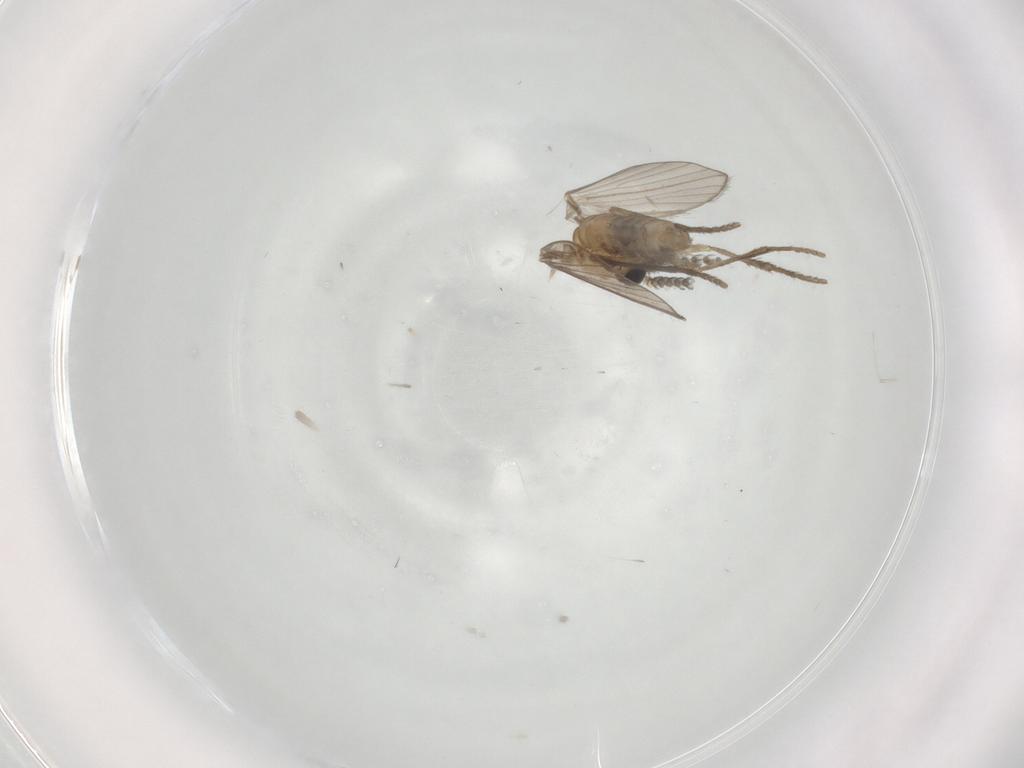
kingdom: Animalia
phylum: Arthropoda
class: Insecta
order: Diptera
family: Psychodidae
